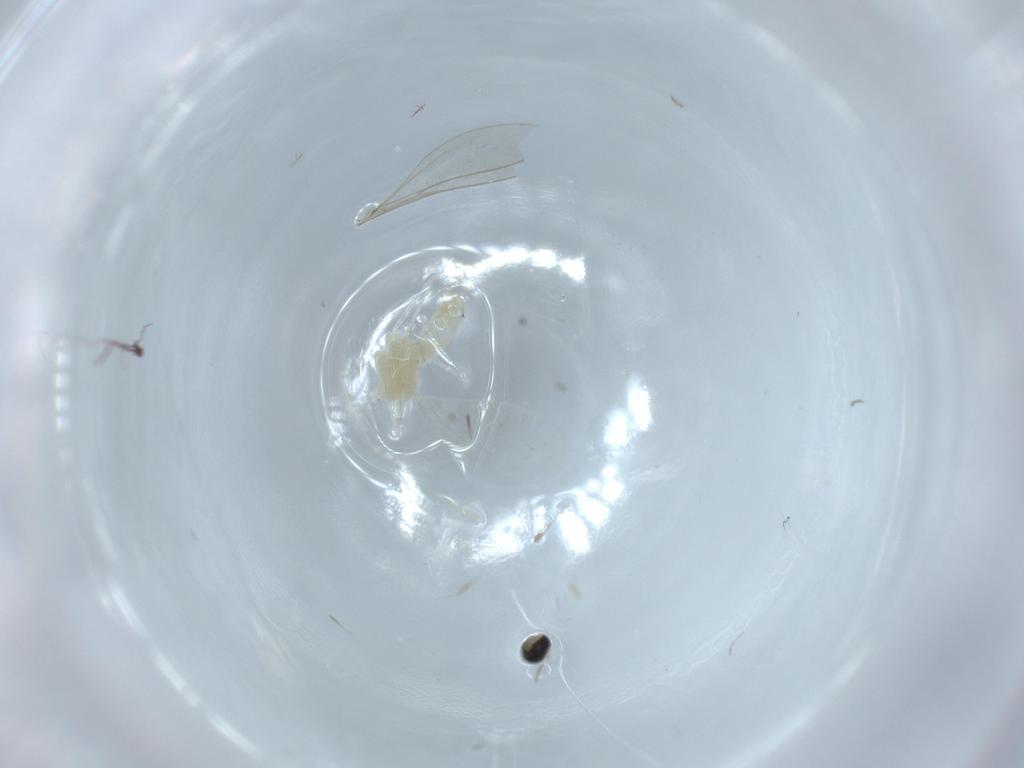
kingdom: Animalia
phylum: Arthropoda
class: Insecta
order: Diptera
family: Cecidomyiidae
